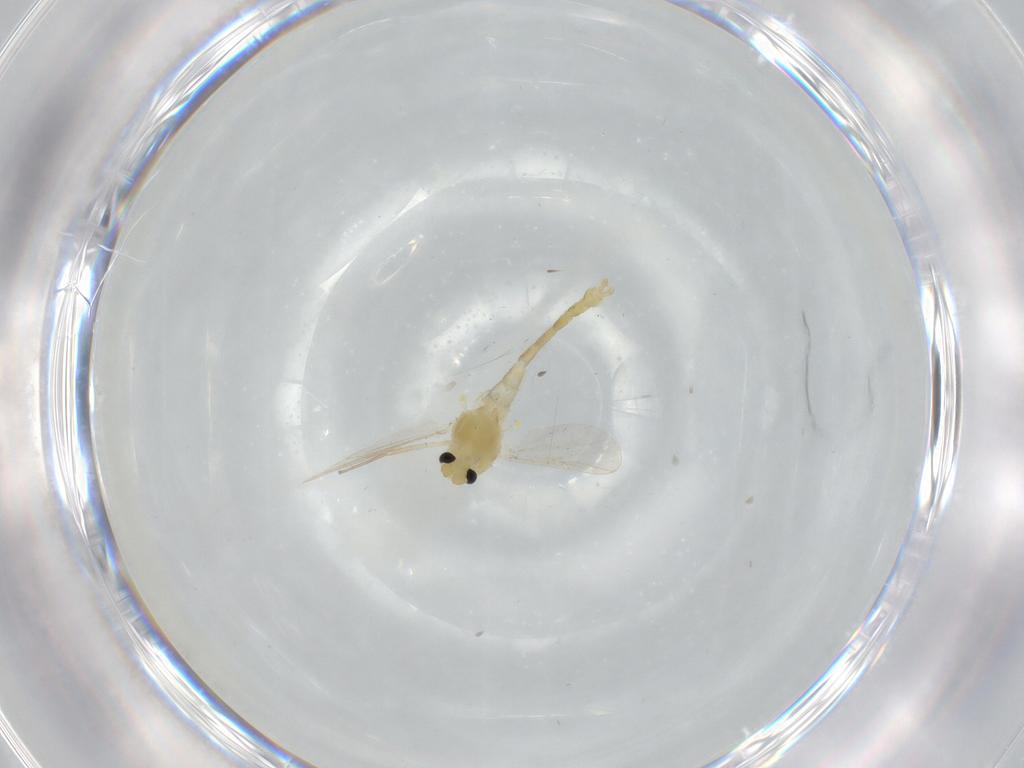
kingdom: Animalia
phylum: Arthropoda
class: Insecta
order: Diptera
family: Chironomidae
